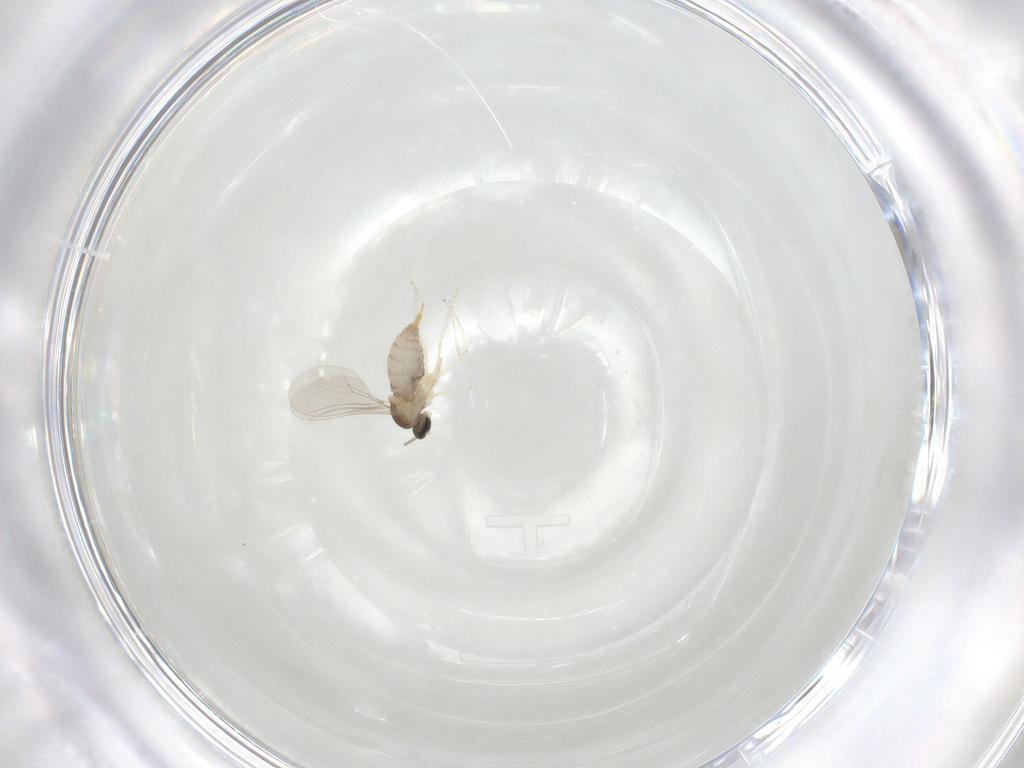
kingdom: Animalia
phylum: Arthropoda
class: Insecta
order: Diptera
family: Cecidomyiidae
